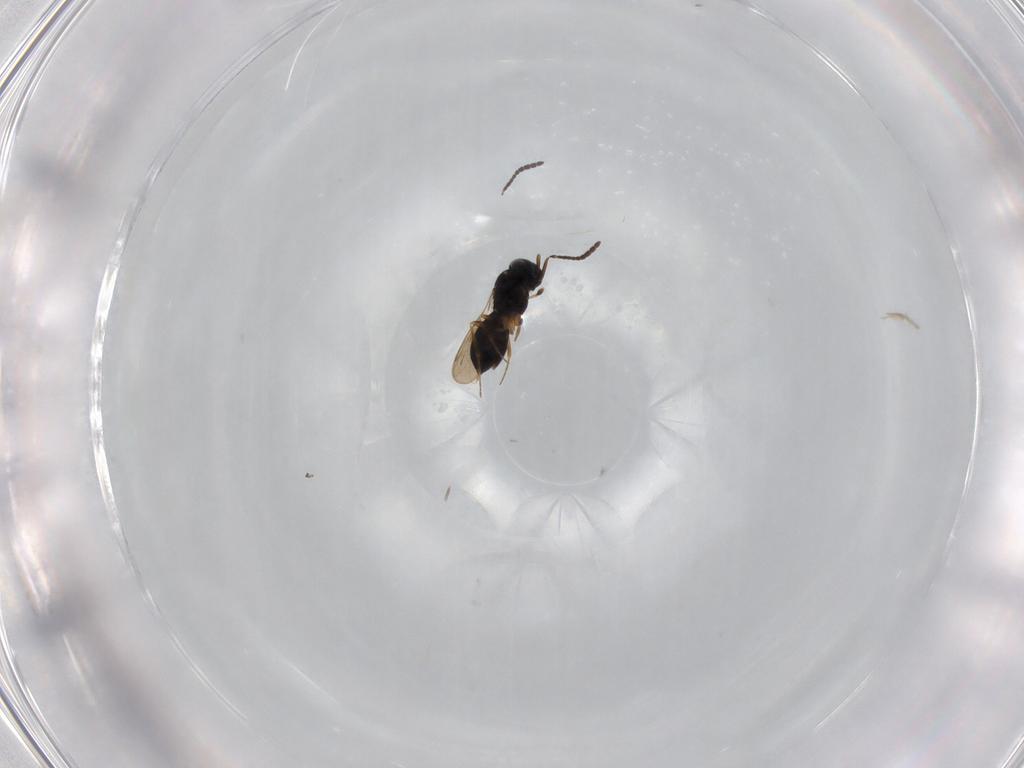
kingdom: Animalia
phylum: Arthropoda
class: Insecta
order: Hymenoptera
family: Scelionidae
